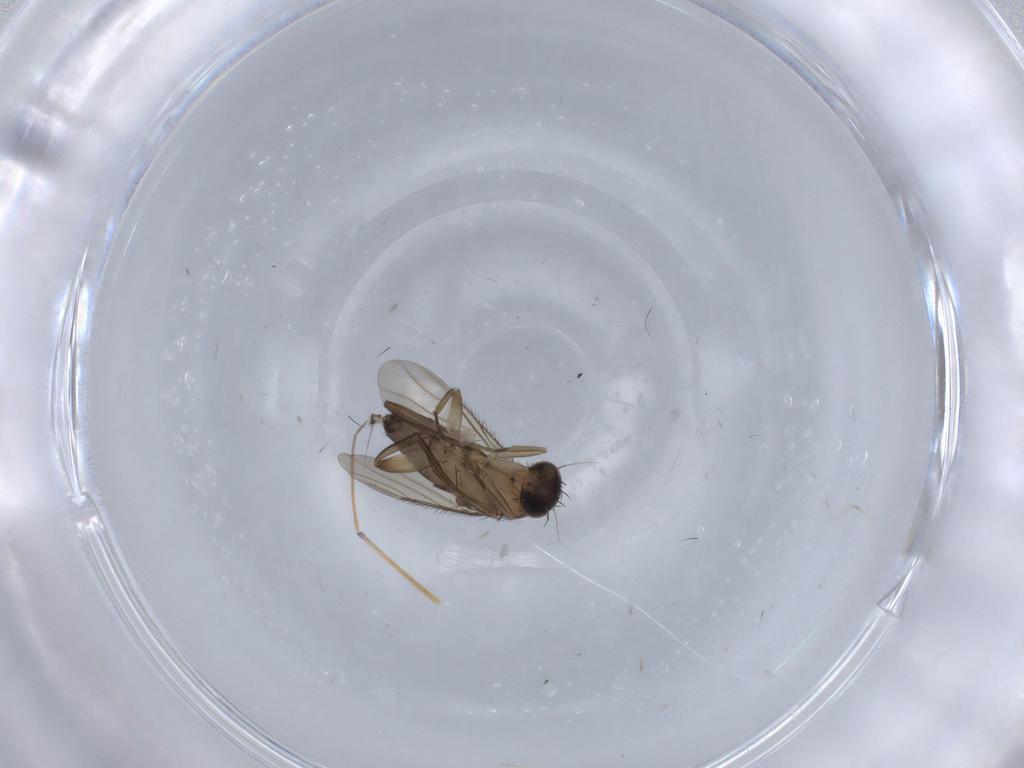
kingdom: Animalia
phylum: Arthropoda
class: Insecta
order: Diptera
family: Phoridae
